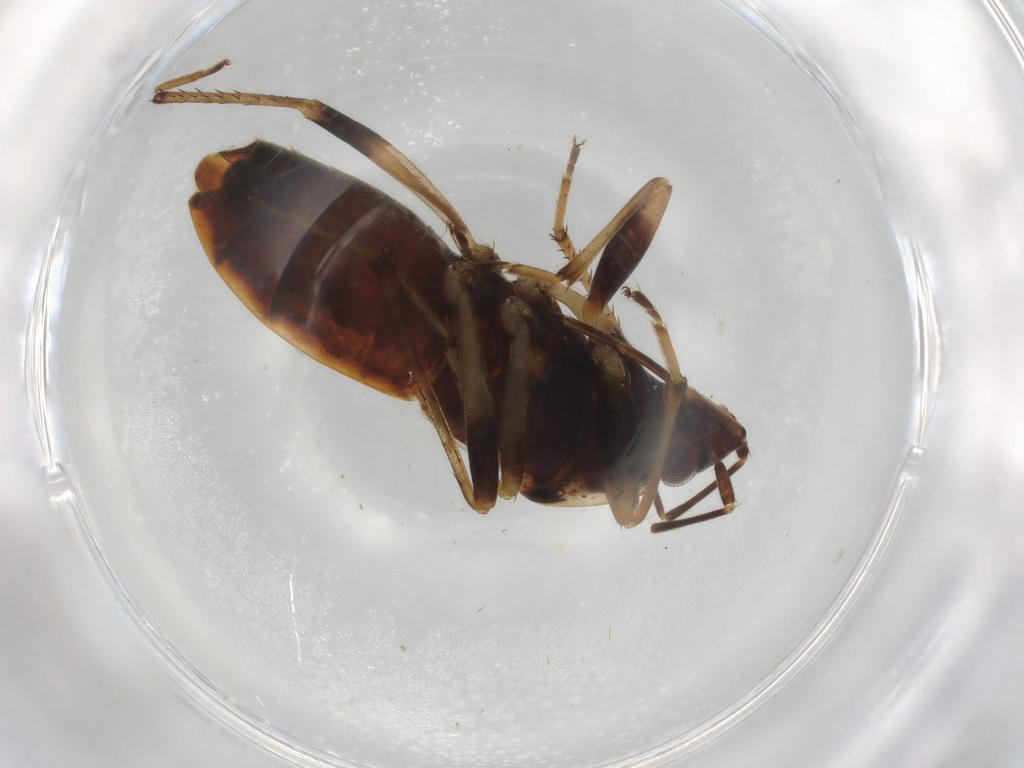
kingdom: Animalia
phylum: Arthropoda
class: Insecta
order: Hemiptera
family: Rhyparochromidae
